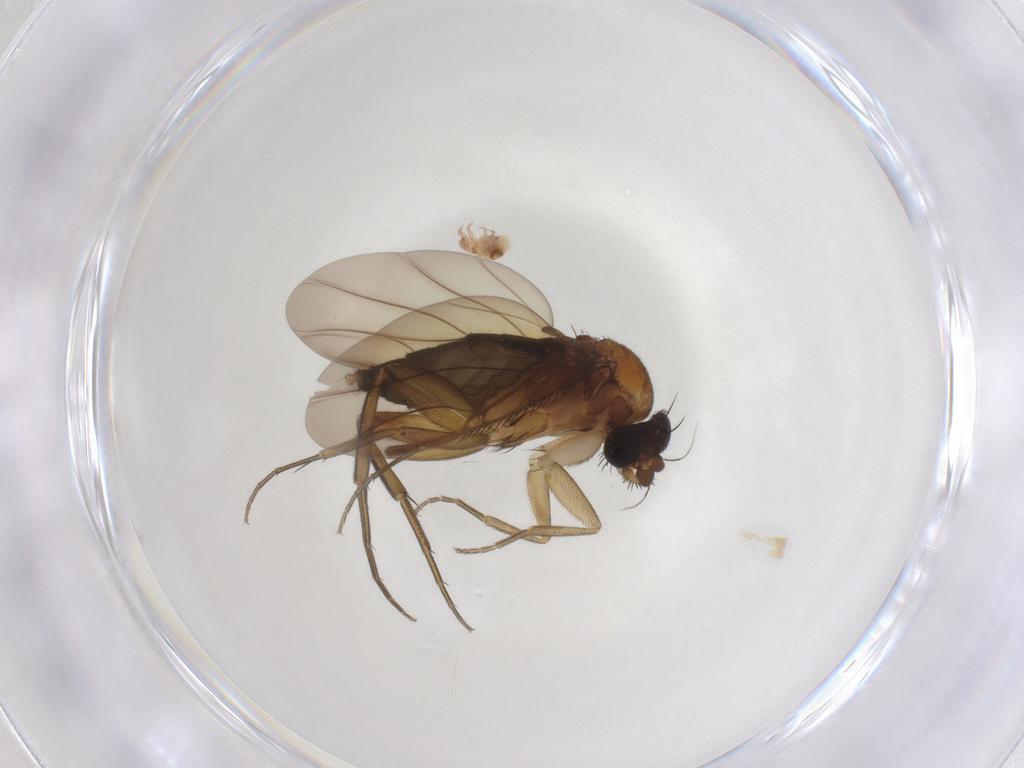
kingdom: Animalia
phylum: Arthropoda
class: Insecta
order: Diptera
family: Phoridae
